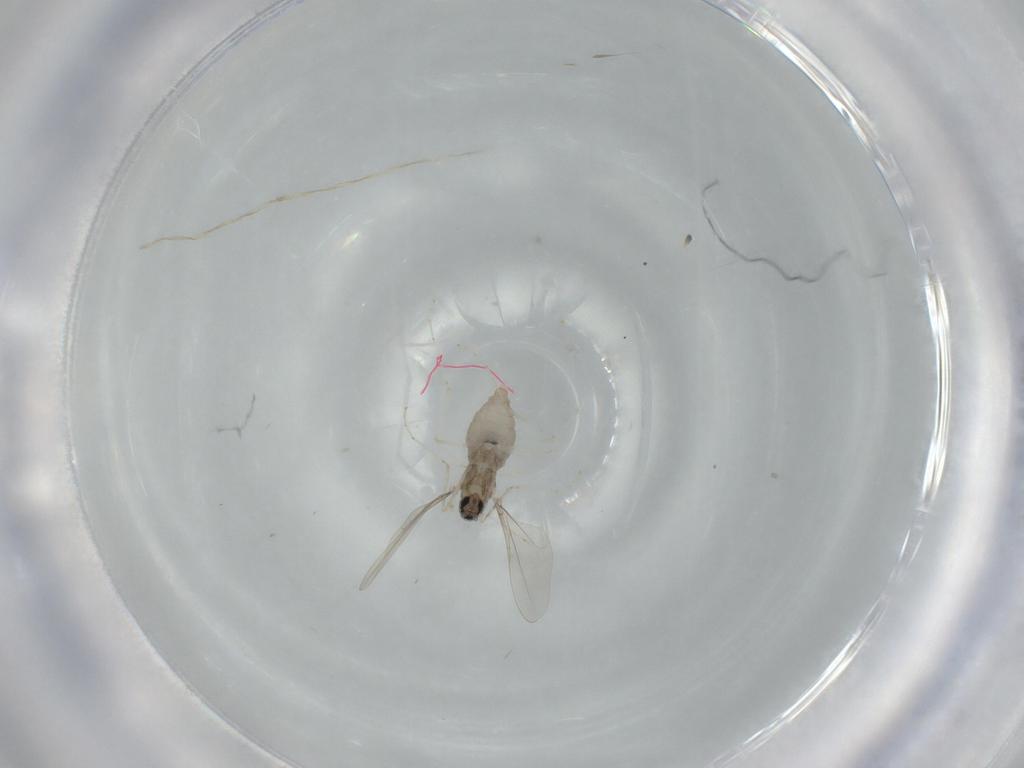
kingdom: Animalia
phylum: Arthropoda
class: Insecta
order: Diptera
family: Cecidomyiidae
